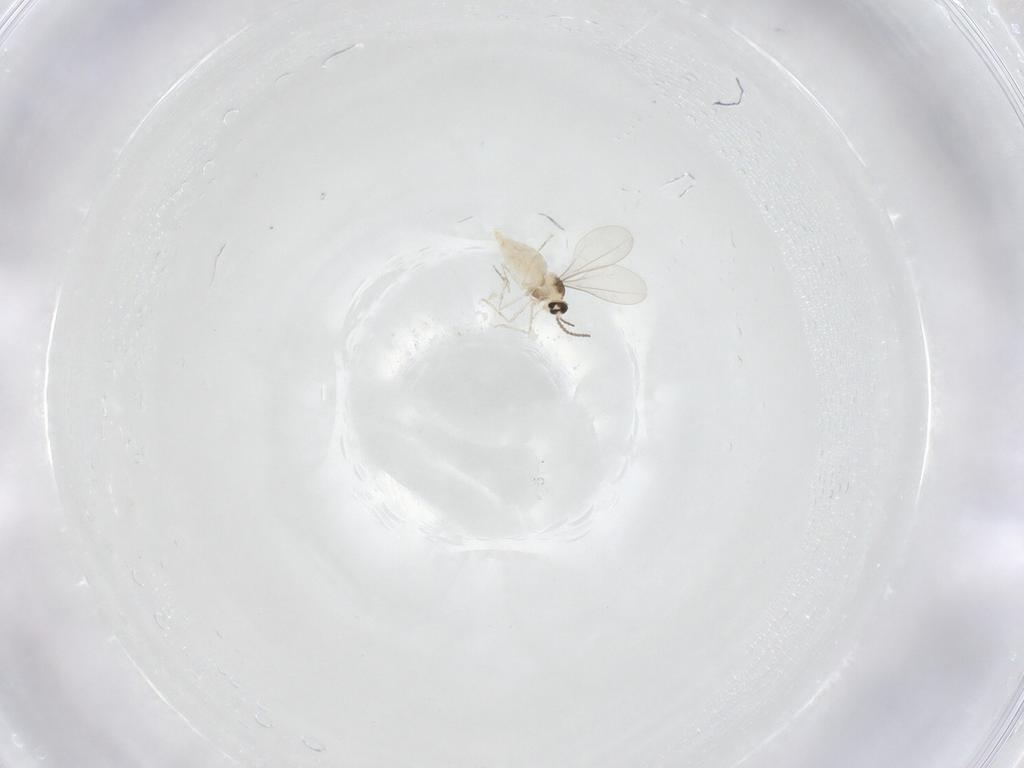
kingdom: Animalia
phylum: Arthropoda
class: Insecta
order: Diptera
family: Cecidomyiidae
